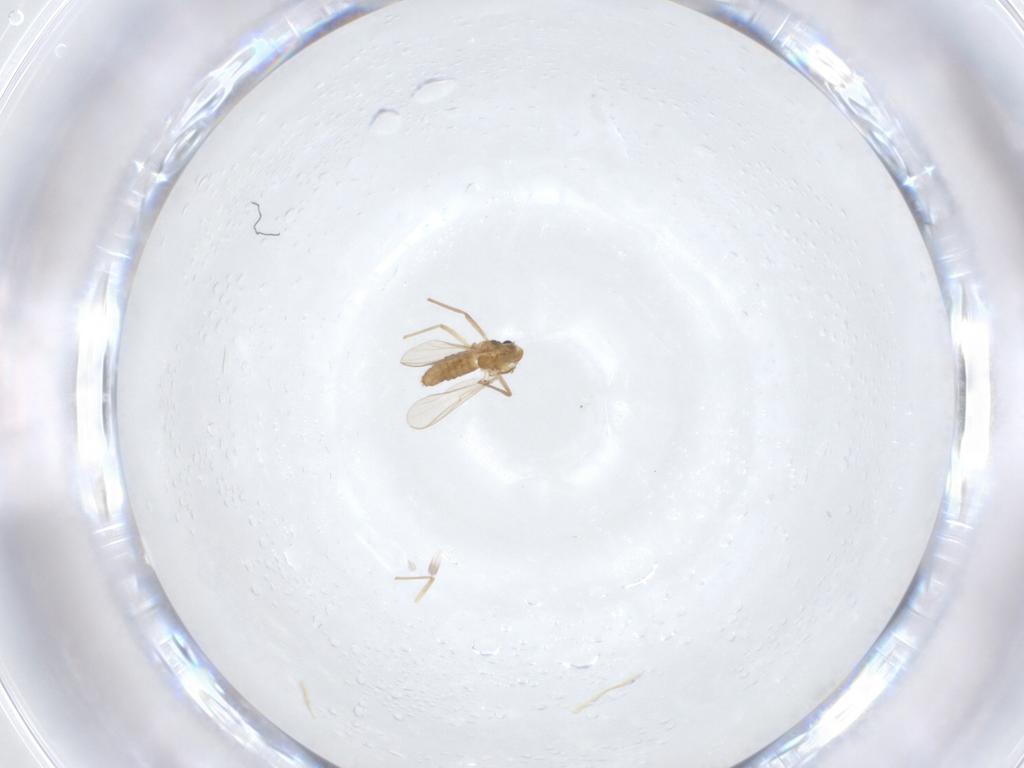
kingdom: Animalia
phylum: Arthropoda
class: Insecta
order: Diptera
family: Chironomidae
